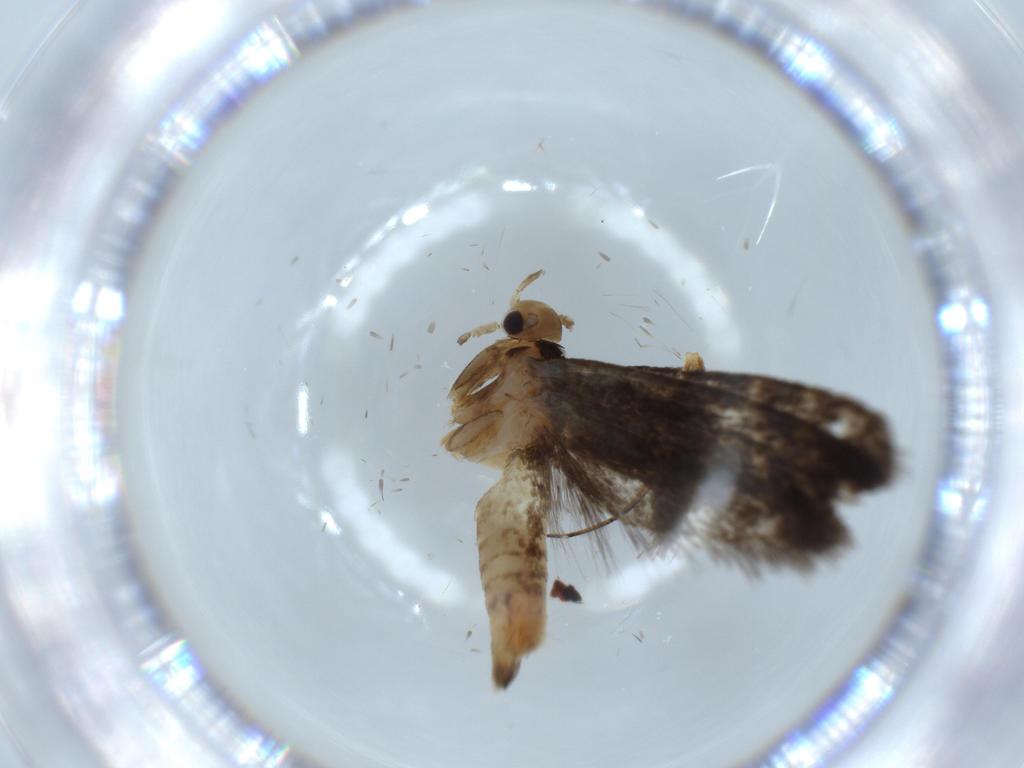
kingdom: Animalia
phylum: Arthropoda
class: Insecta
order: Lepidoptera
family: Tineidae
